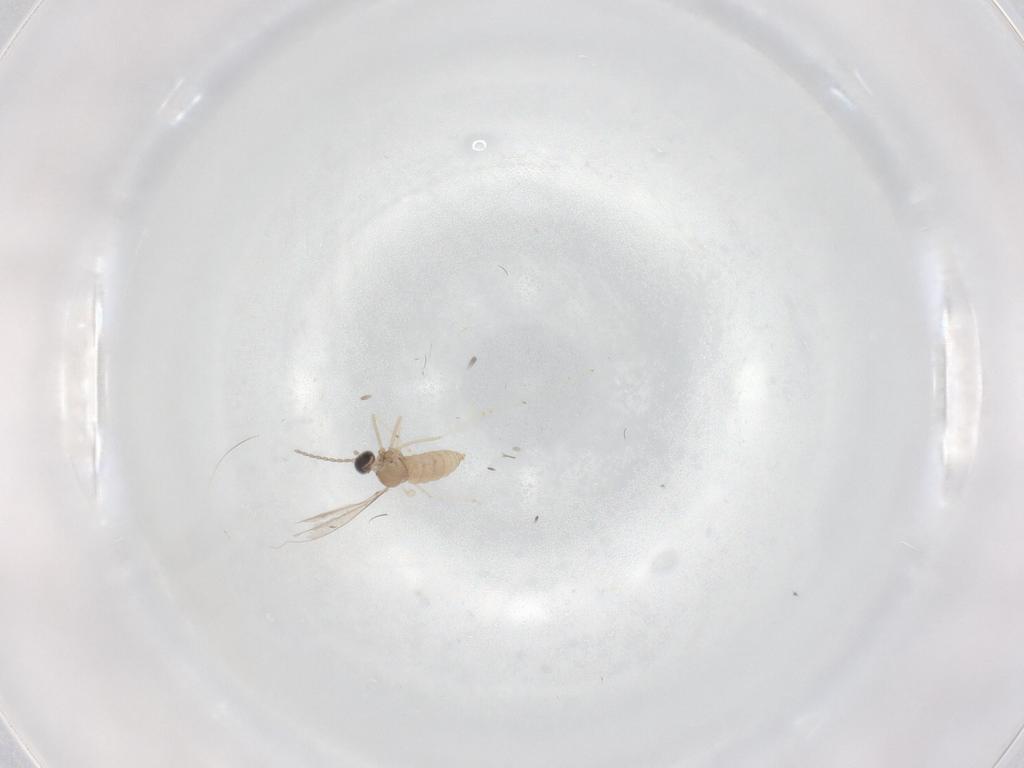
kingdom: Animalia
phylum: Arthropoda
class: Insecta
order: Diptera
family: Cecidomyiidae
